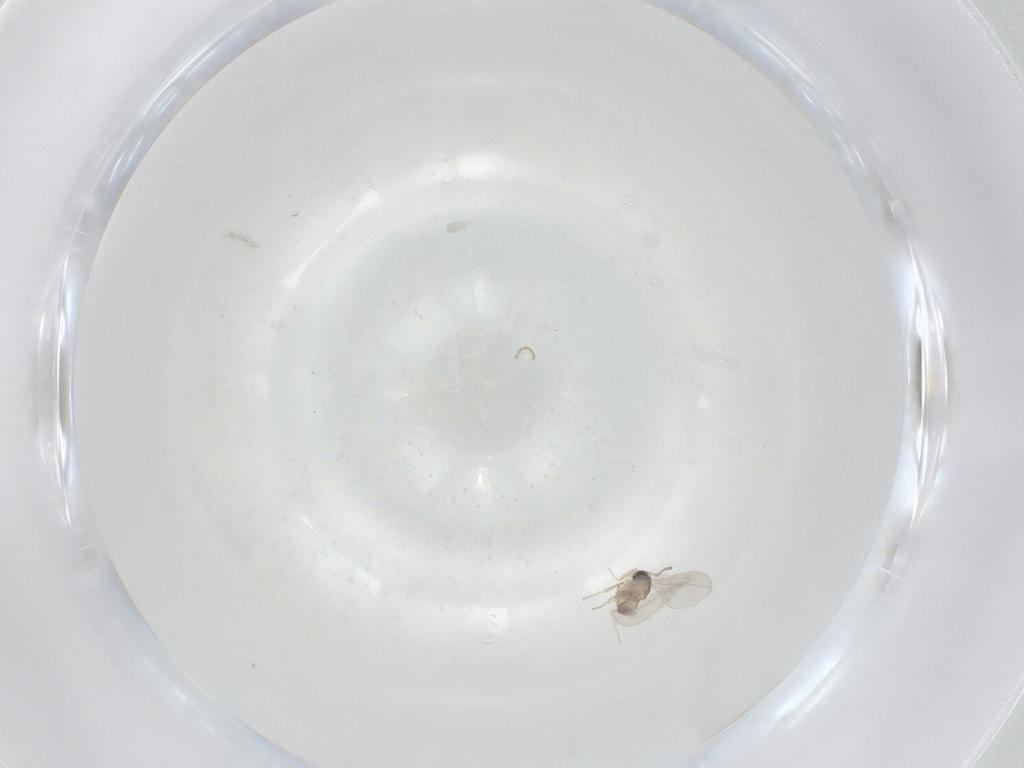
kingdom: Animalia
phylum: Arthropoda
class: Insecta
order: Diptera
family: Cecidomyiidae
